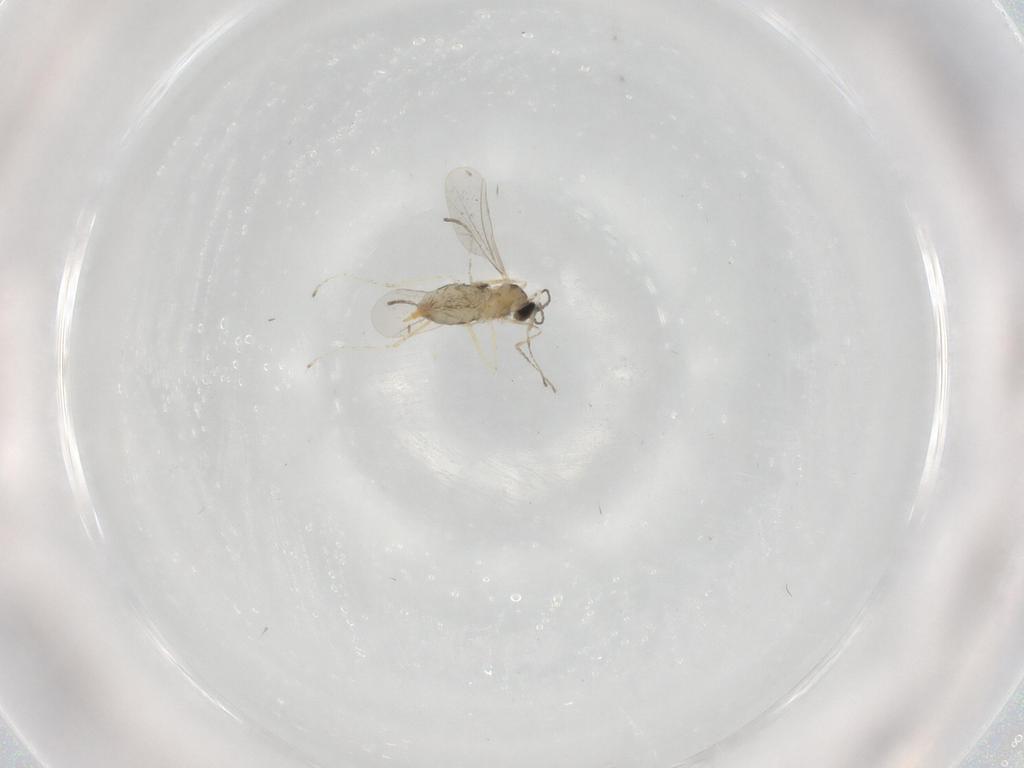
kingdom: Animalia
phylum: Arthropoda
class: Insecta
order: Diptera
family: Cecidomyiidae
